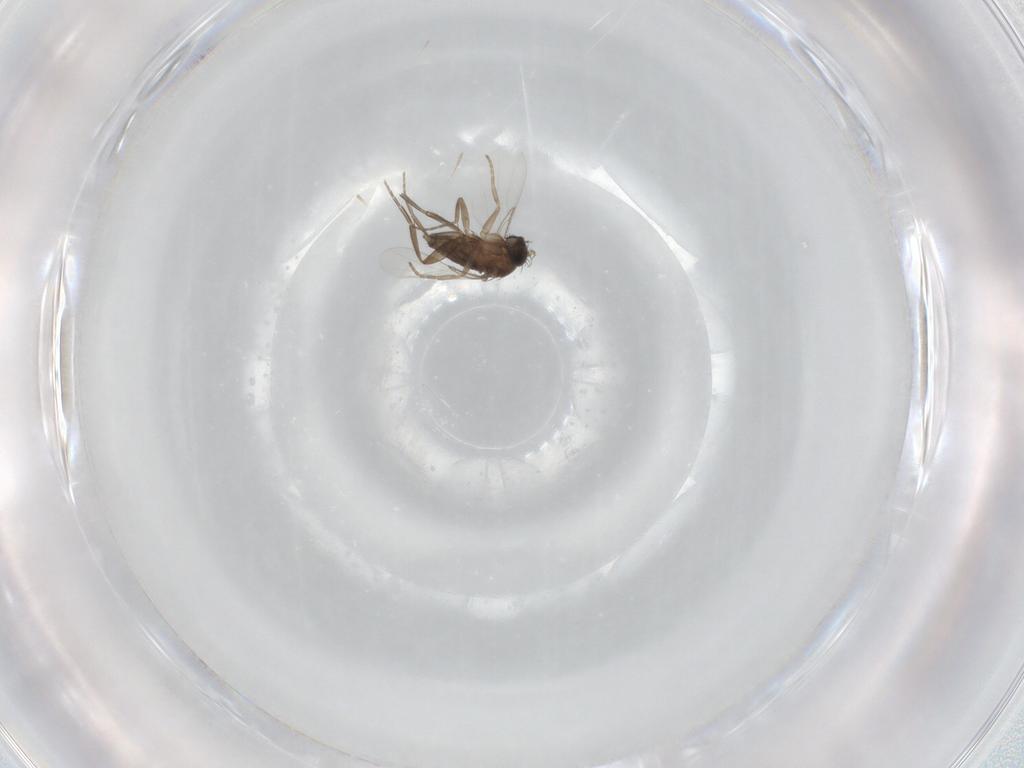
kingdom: Animalia
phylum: Arthropoda
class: Insecta
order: Diptera
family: Phoridae
